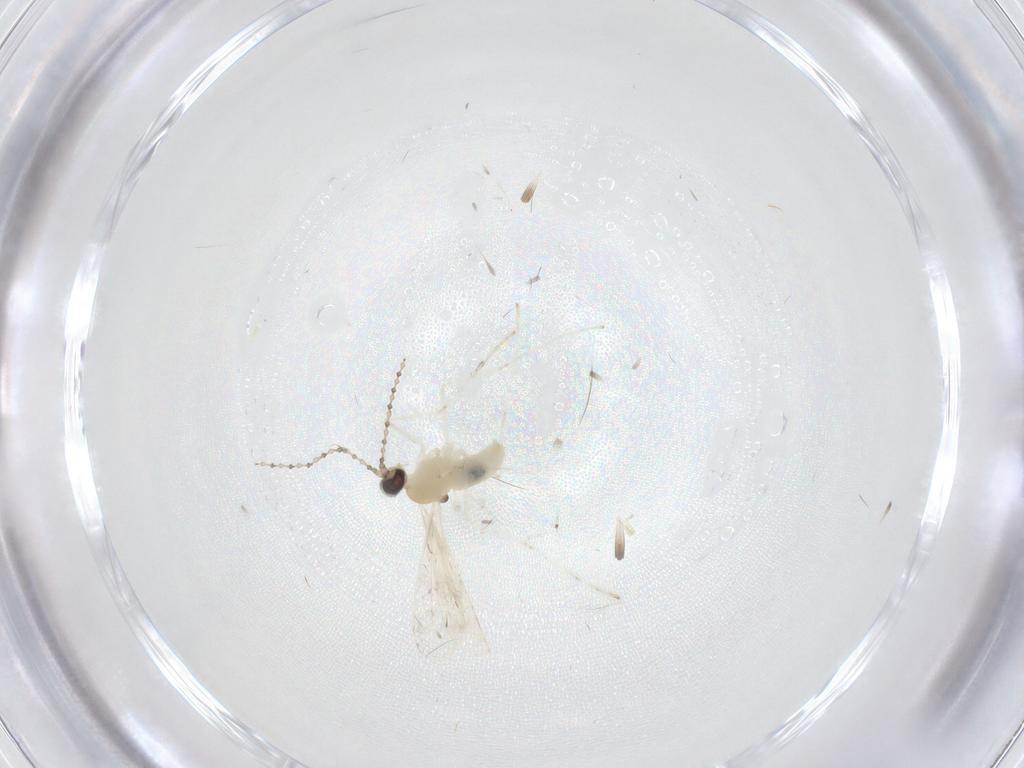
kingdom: Animalia
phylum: Arthropoda
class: Insecta
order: Diptera
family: Cecidomyiidae
